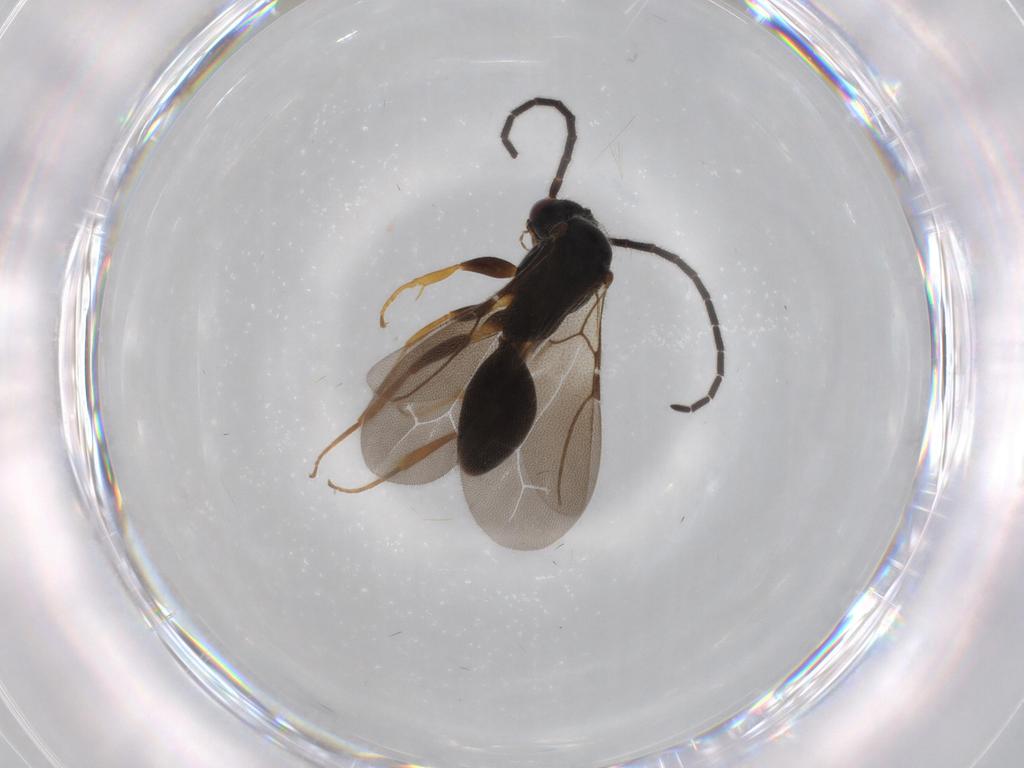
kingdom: Animalia
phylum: Arthropoda
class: Insecta
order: Hymenoptera
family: Bethylidae
